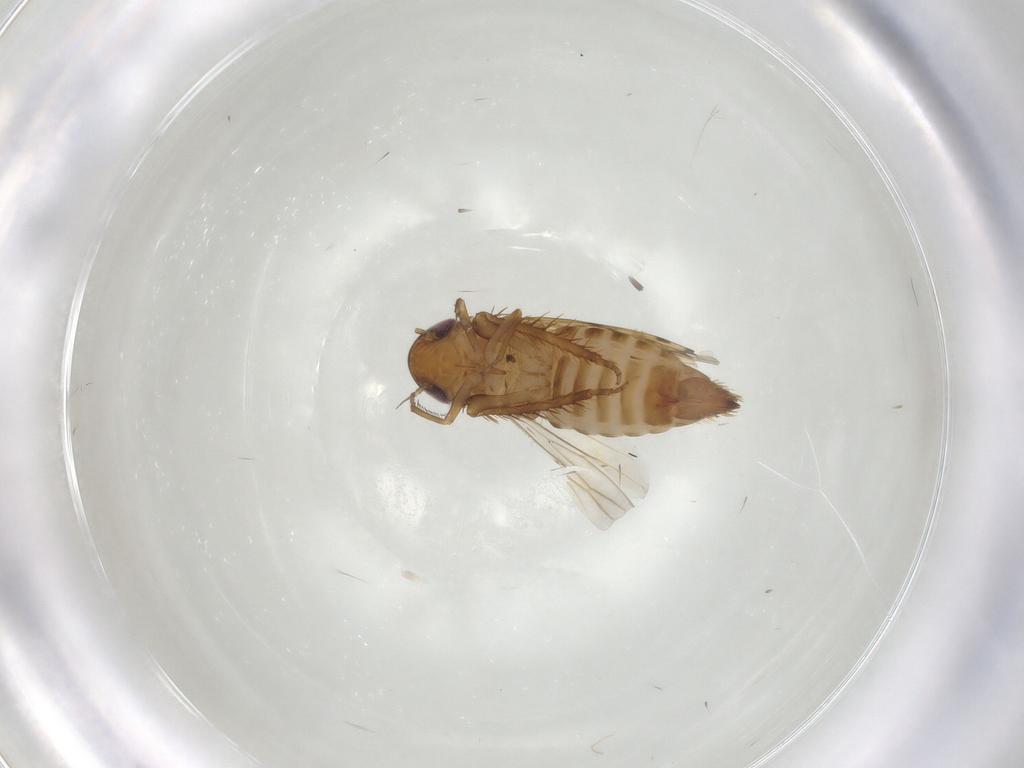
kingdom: Animalia
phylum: Arthropoda
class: Insecta
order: Hemiptera
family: Cicadellidae
